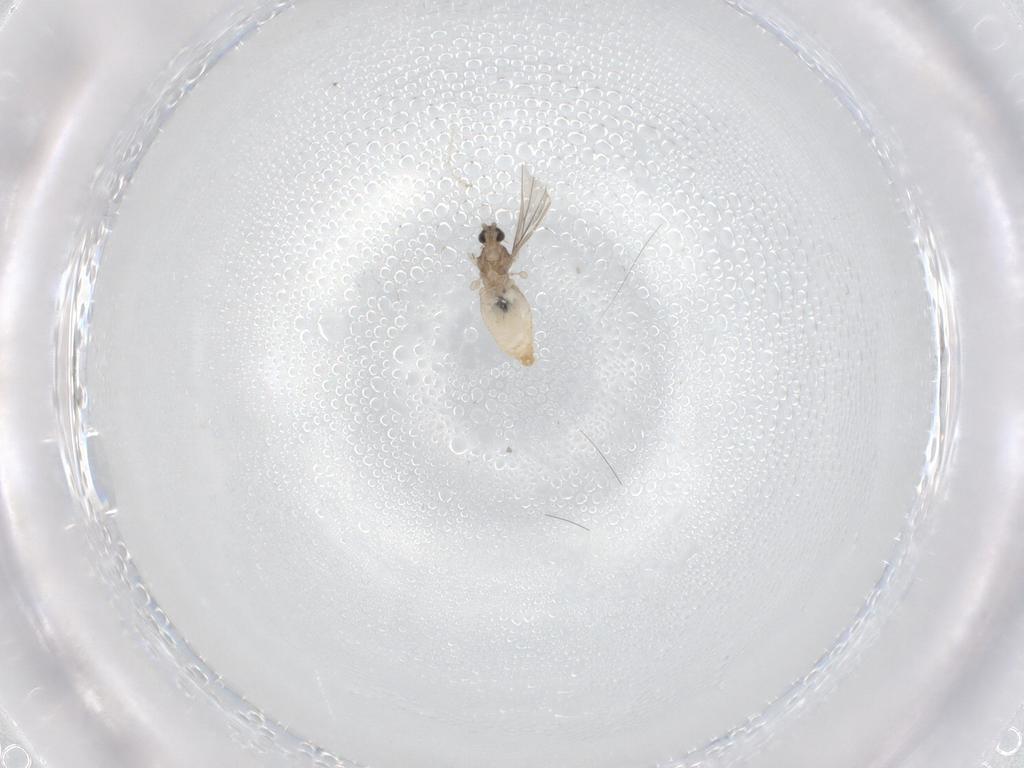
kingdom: Animalia
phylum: Arthropoda
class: Insecta
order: Diptera
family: Cecidomyiidae
